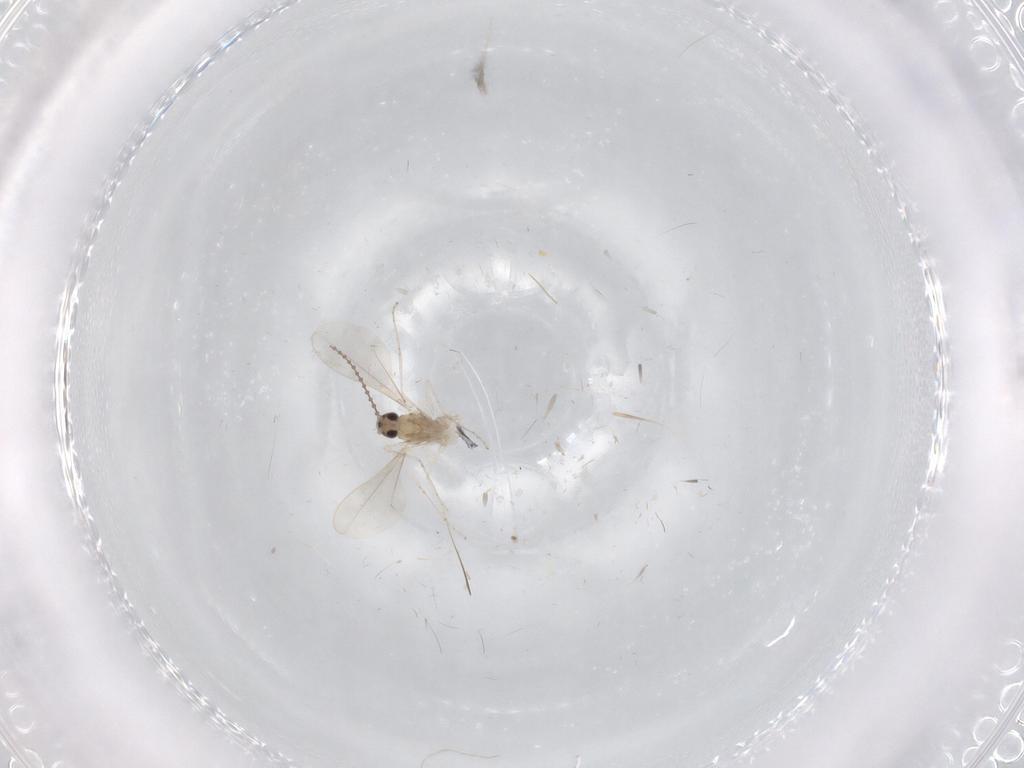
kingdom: Animalia
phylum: Arthropoda
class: Insecta
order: Diptera
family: Cecidomyiidae
